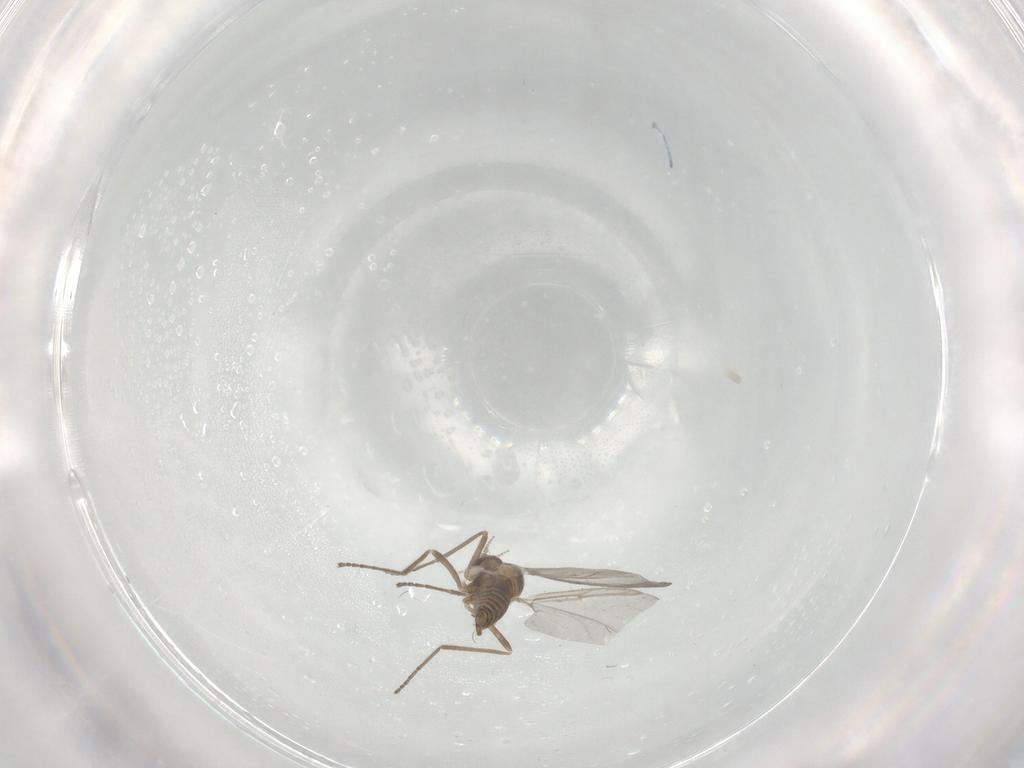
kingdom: Animalia
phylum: Arthropoda
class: Insecta
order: Diptera
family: Cecidomyiidae
